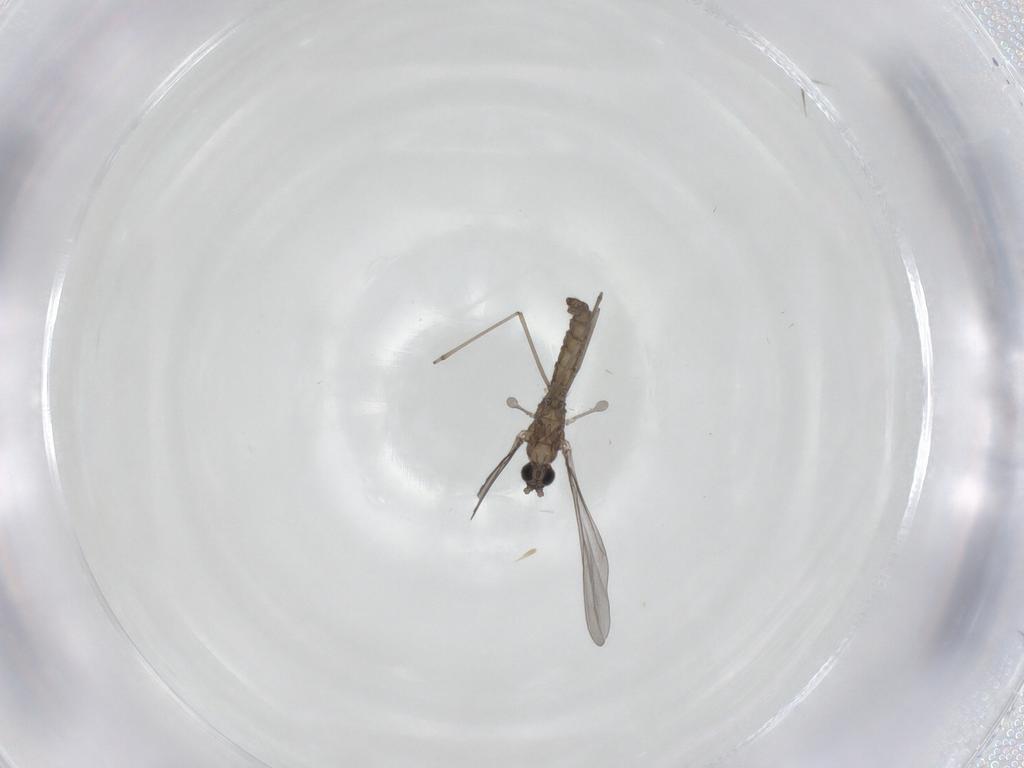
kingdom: Animalia
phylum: Arthropoda
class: Insecta
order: Diptera
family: Cecidomyiidae
